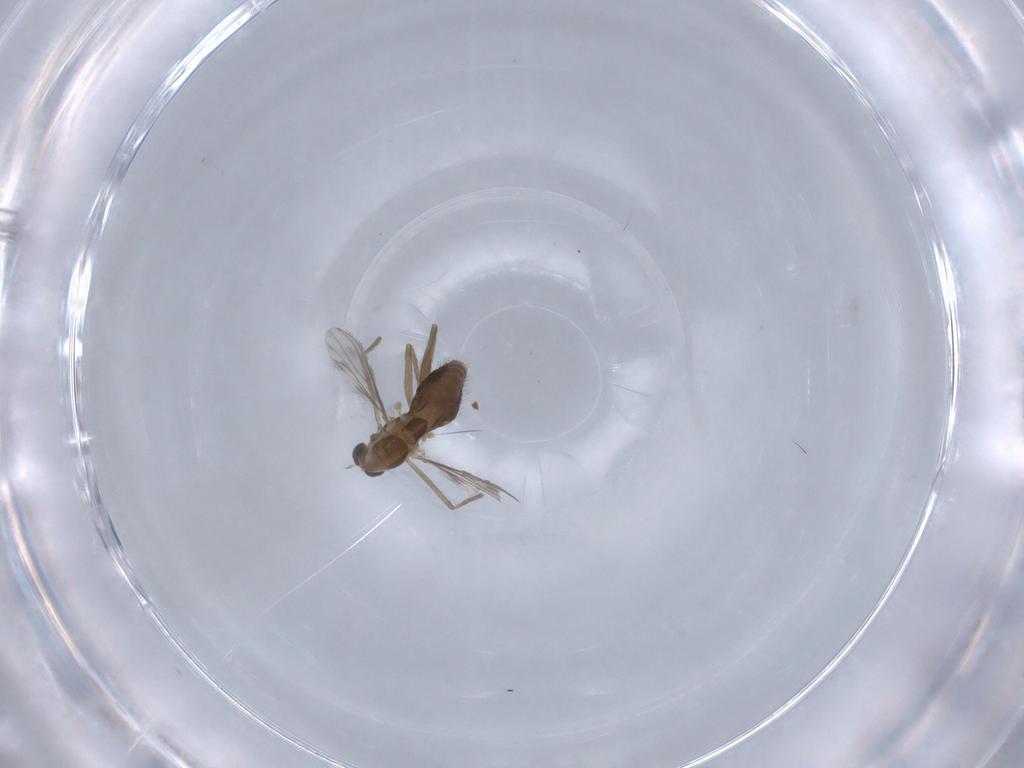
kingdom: Animalia
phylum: Arthropoda
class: Insecta
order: Diptera
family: Chironomidae
